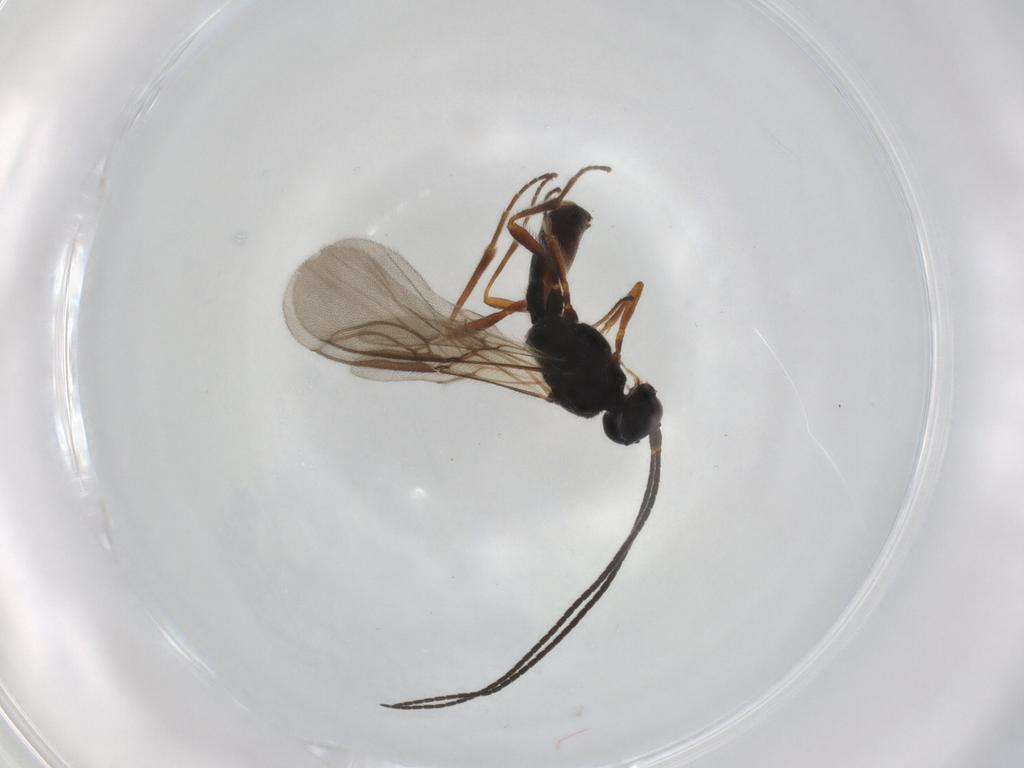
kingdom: Animalia
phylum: Arthropoda
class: Insecta
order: Hymenoptera
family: Braconidae
